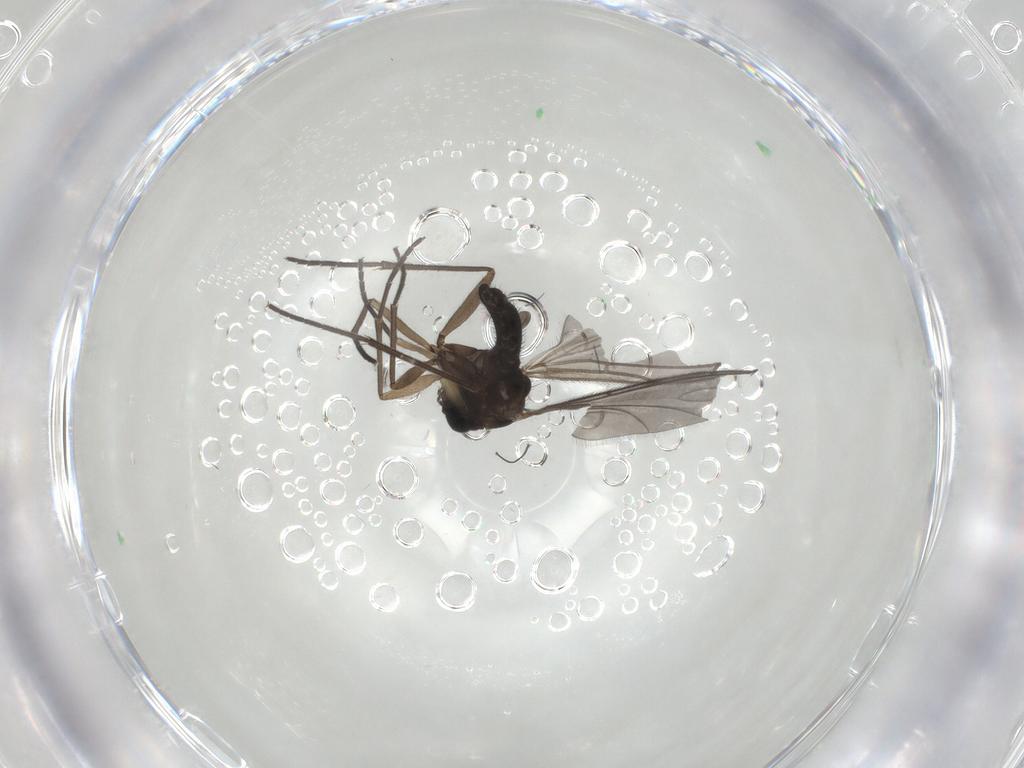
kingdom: Animalia
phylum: Arthropoda
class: Insecta
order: Diptera
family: Sciaridae
